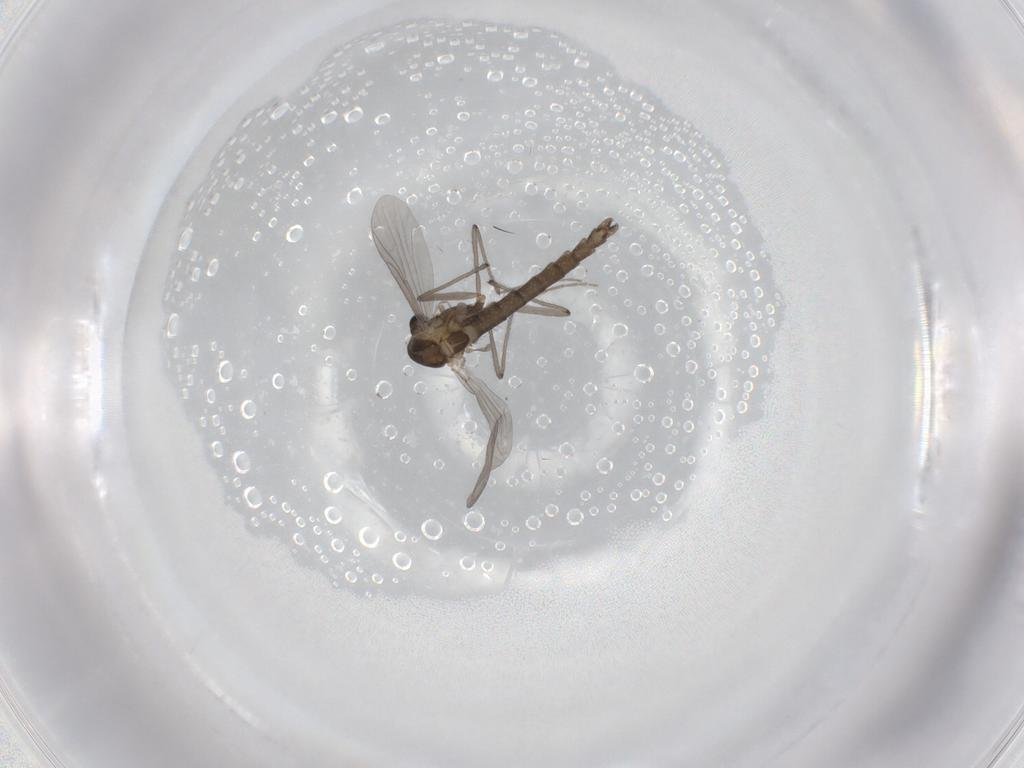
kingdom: Animalia
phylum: Arthropoda
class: Insecta
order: Diptera
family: Chironomidae
